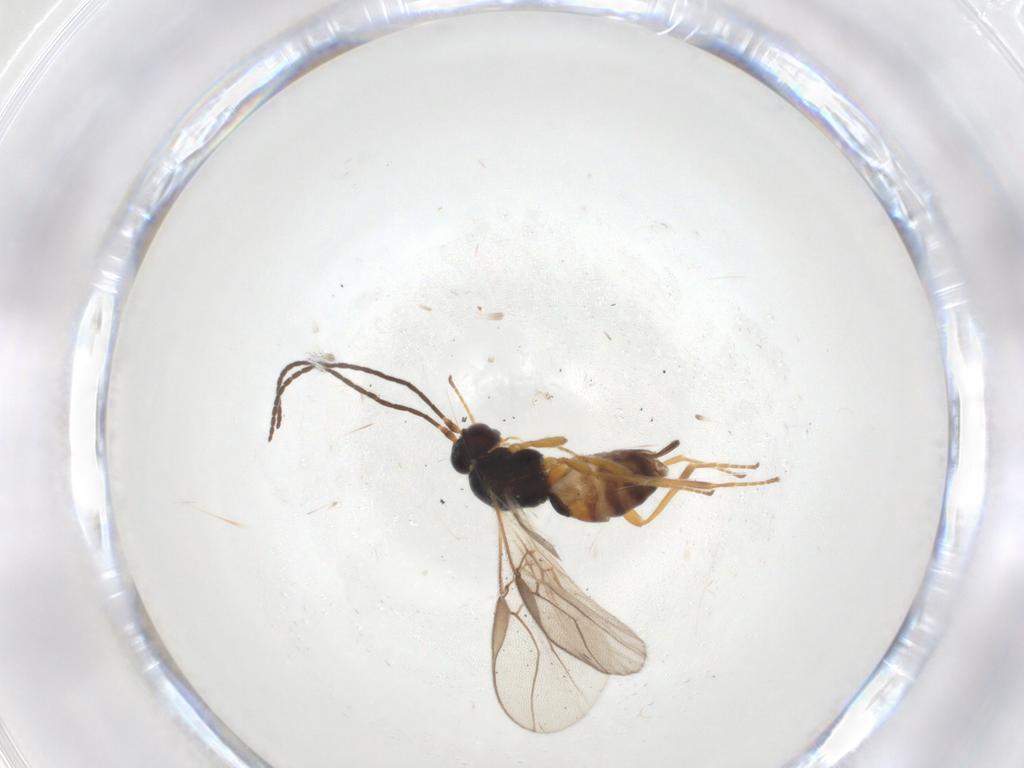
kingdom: Animalia
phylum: Arthropoda
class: Insecta
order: Hymenoptera
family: Braconidae
